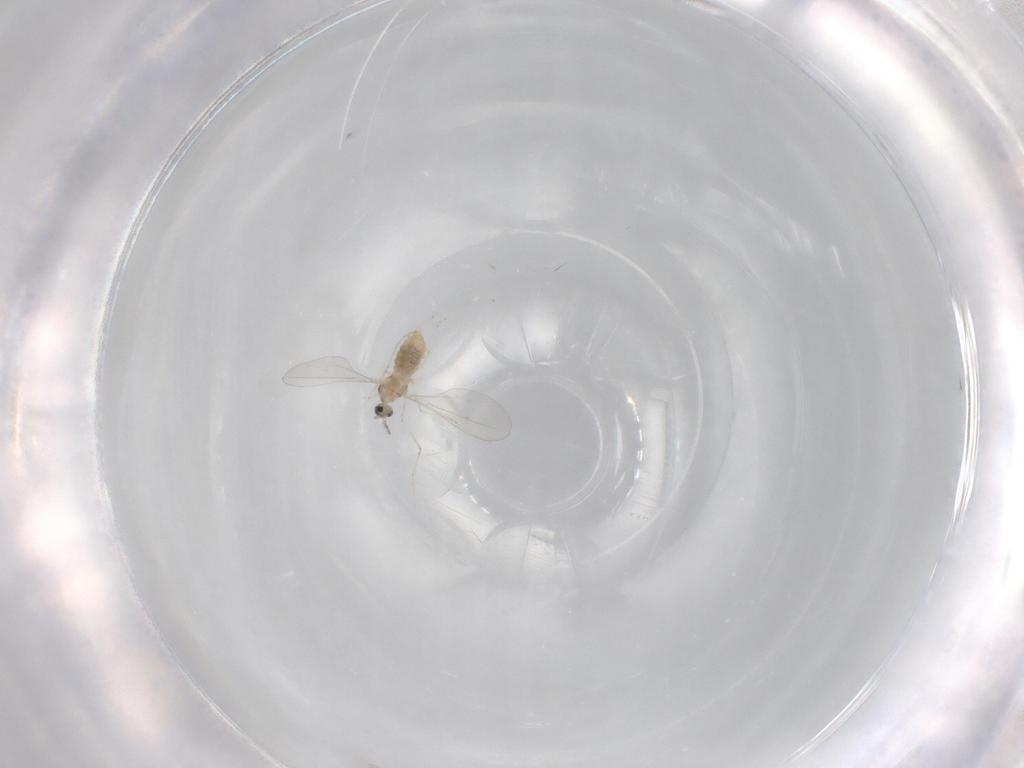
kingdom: Animalia
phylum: Arthropoda
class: Insecta
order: Diptera
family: Cecidomyiidae
